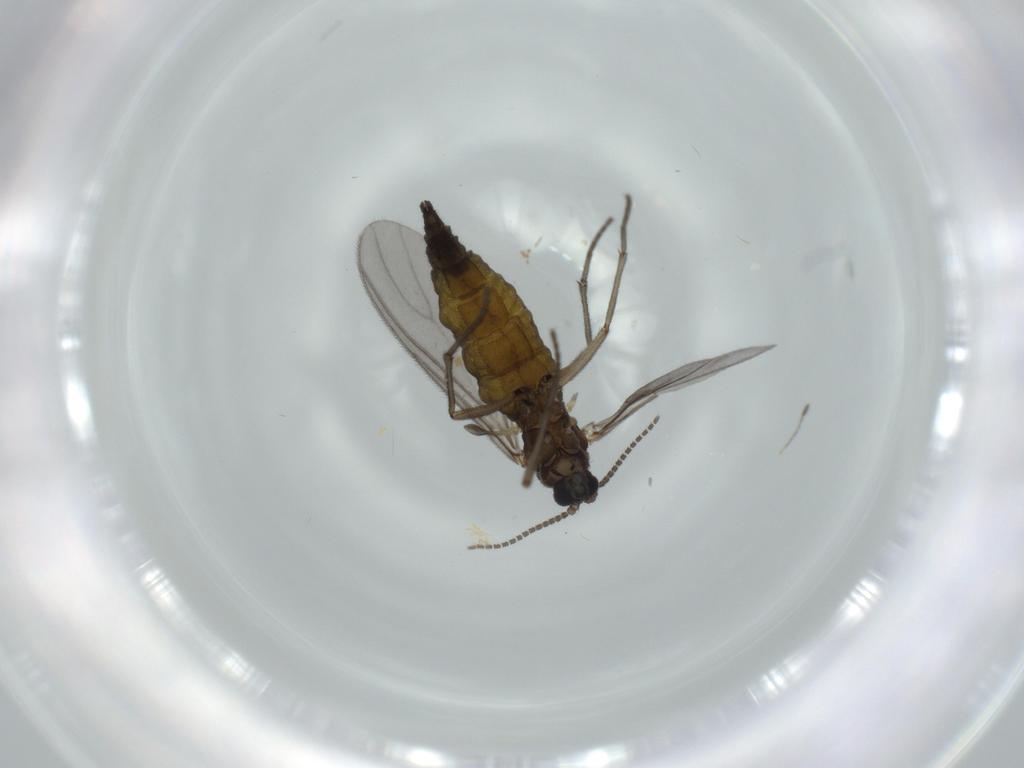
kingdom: Animalia
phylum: Arthropoda
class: Insecta
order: Diptera
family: Sciaridae
